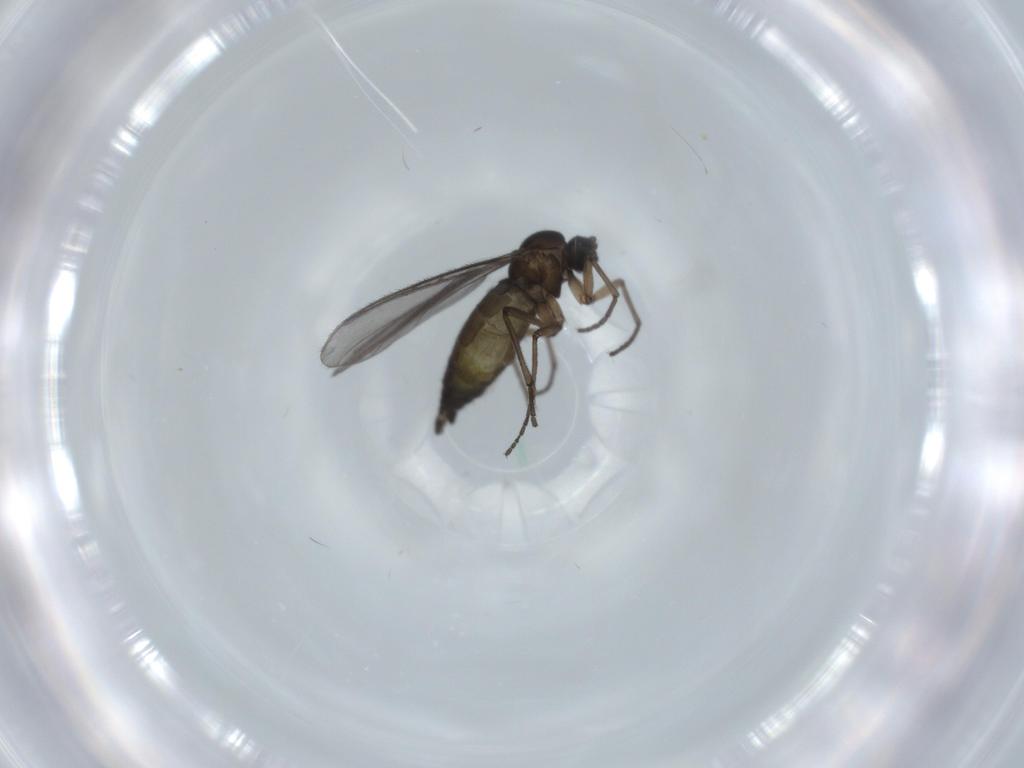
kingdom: Animalia
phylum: Arthropoda
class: Insecta
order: Diptera
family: Sciaridae
